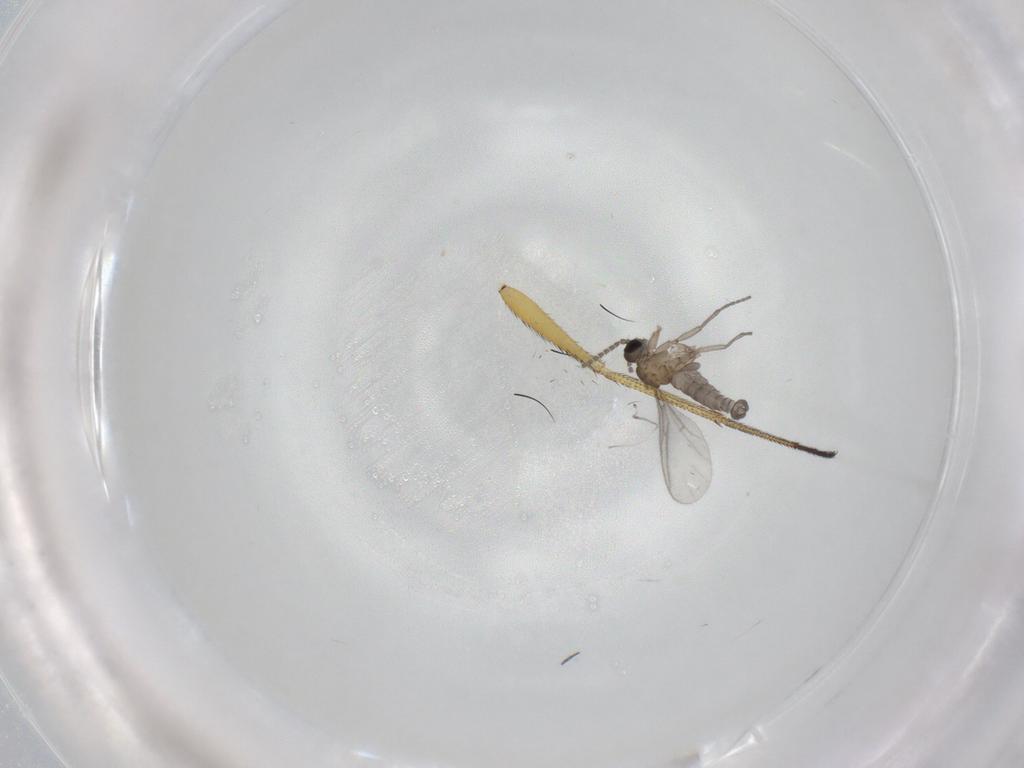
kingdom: Animalia
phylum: Arthropoda
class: Insecta
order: Diptera
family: Sciaridae
